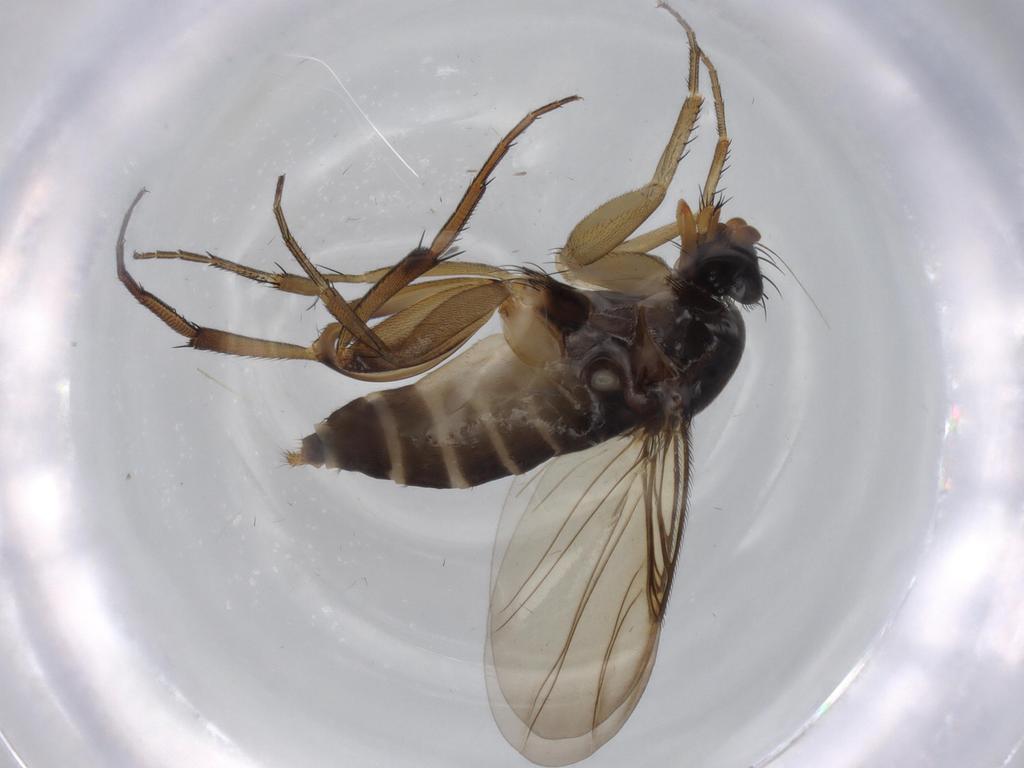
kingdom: Animalia
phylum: Arthropoda
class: Insecta
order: Diptera
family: Phoridae
